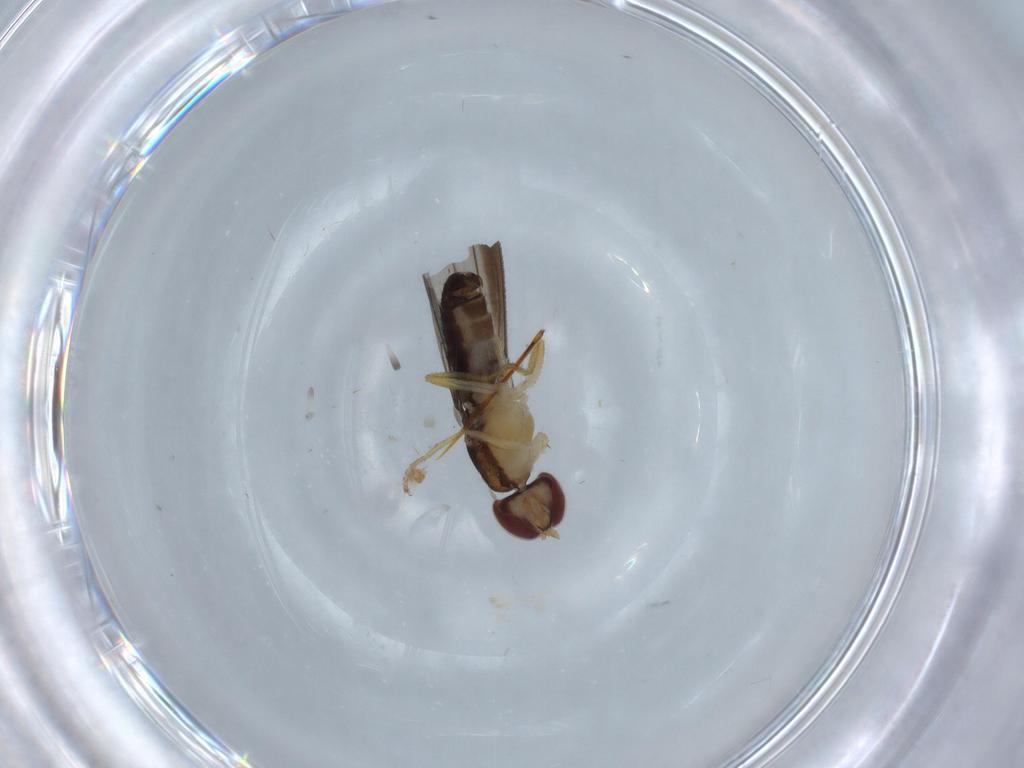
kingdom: Animalia
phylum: Arthropoda
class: Insecta
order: Diptera
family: Anthomyzidae
